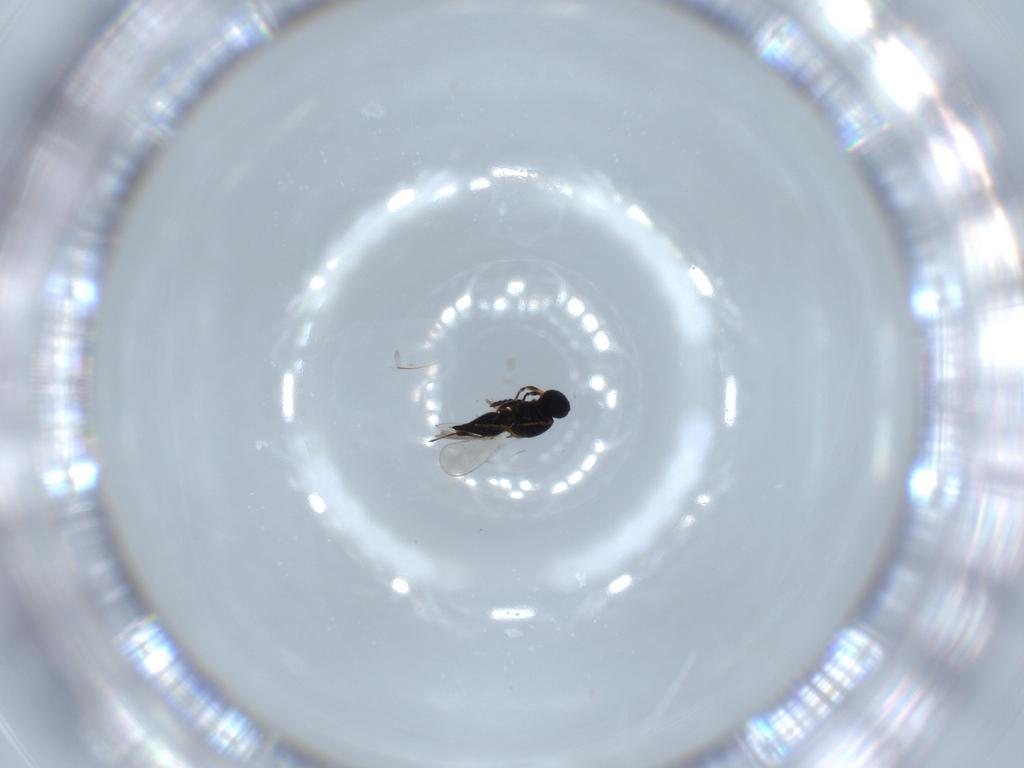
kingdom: Animalia
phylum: Arthropoda
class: Insecta
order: Hymenoptera
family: Platygastridae
